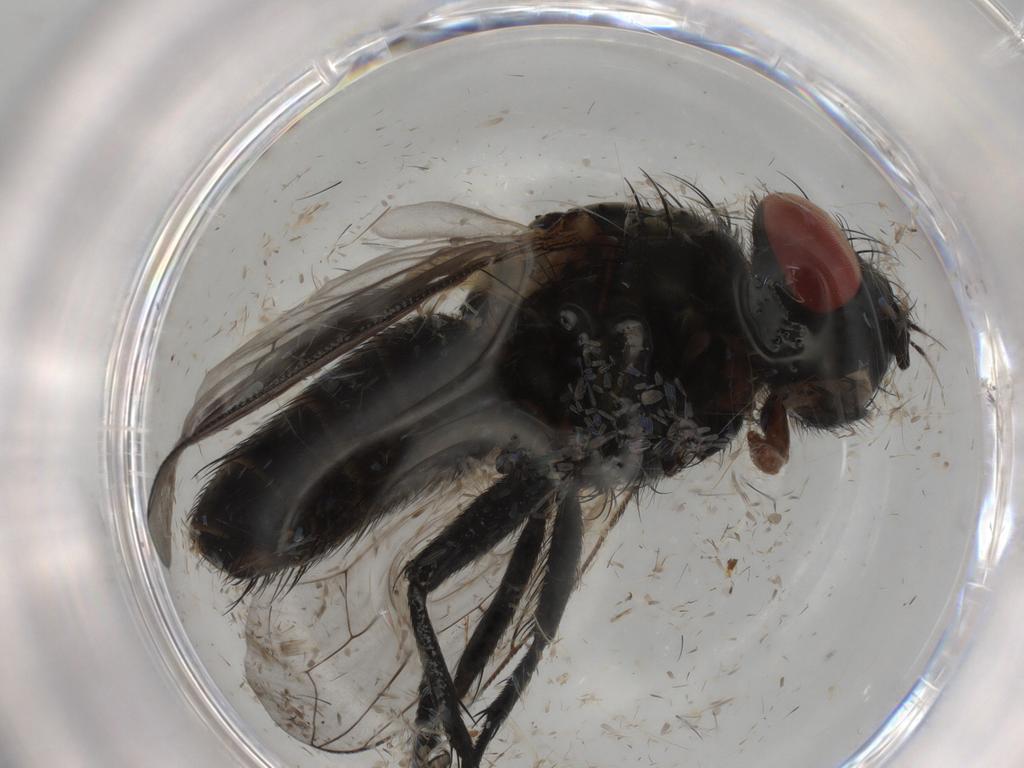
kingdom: Animalia
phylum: Arthropoda
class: Insecta
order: Diptera
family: Sarcophagidae
